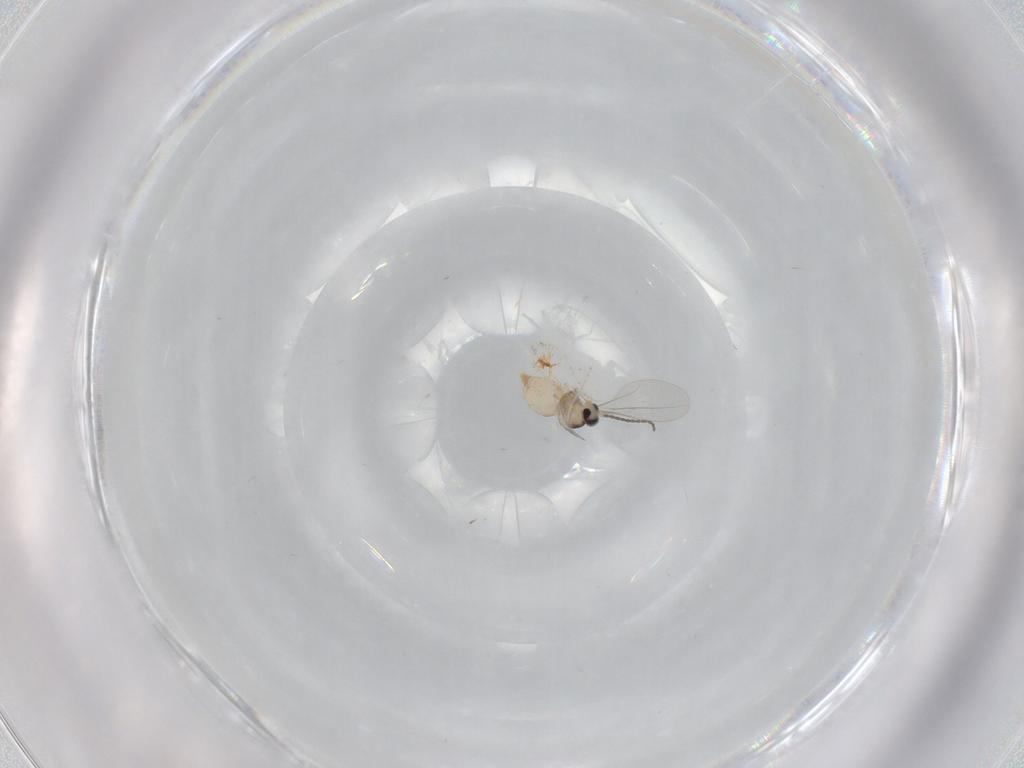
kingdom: Animalia
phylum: Arthropoda
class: Insecta
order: Diptera
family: Cecidomyiidae
